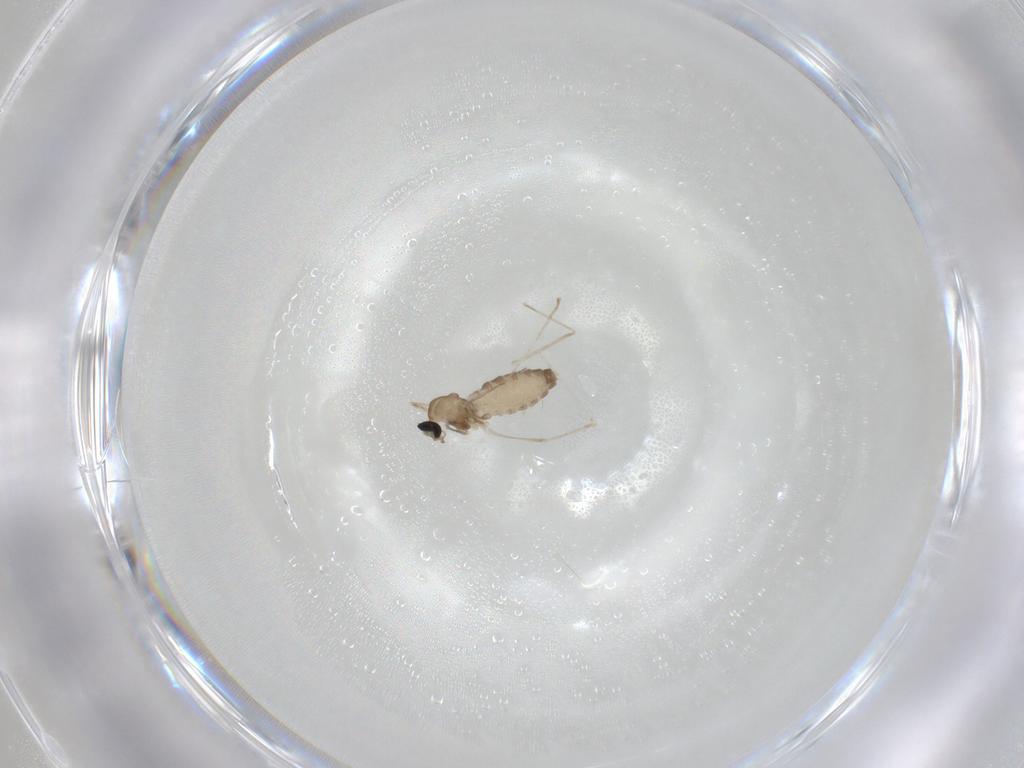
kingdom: Animalia
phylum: Arthropoda
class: Insecta
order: Diptera
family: Cecidomyiidae
